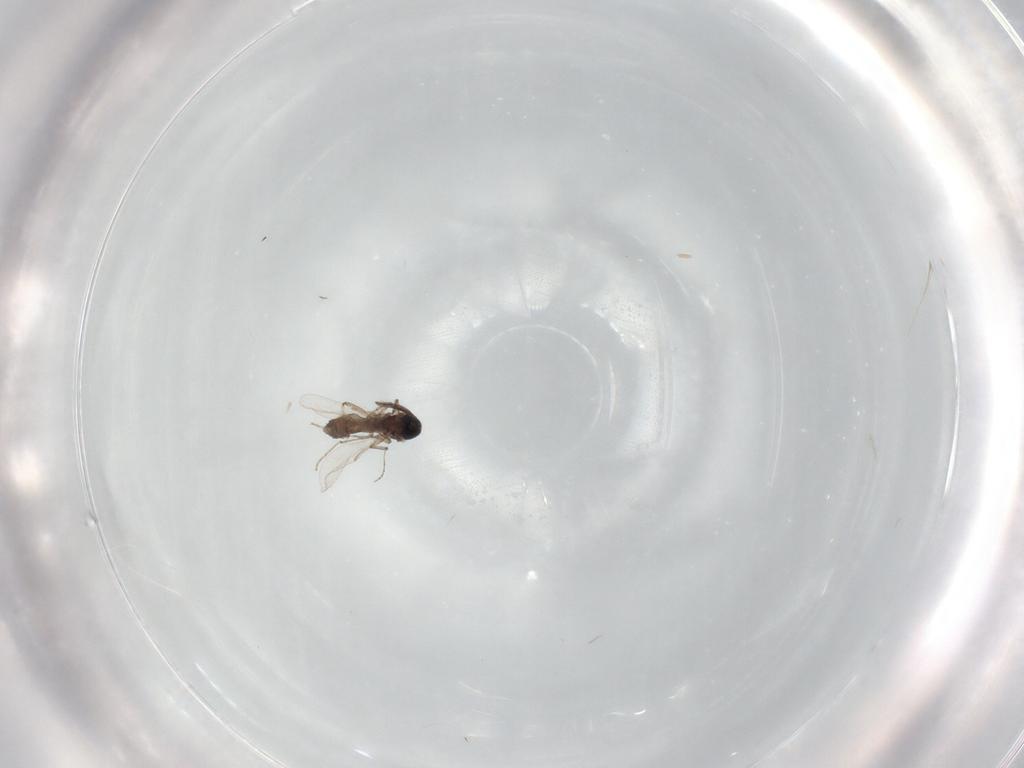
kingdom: Animalia
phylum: Arthropoda
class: Insecta
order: Diptera
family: Ceratopogonidae
